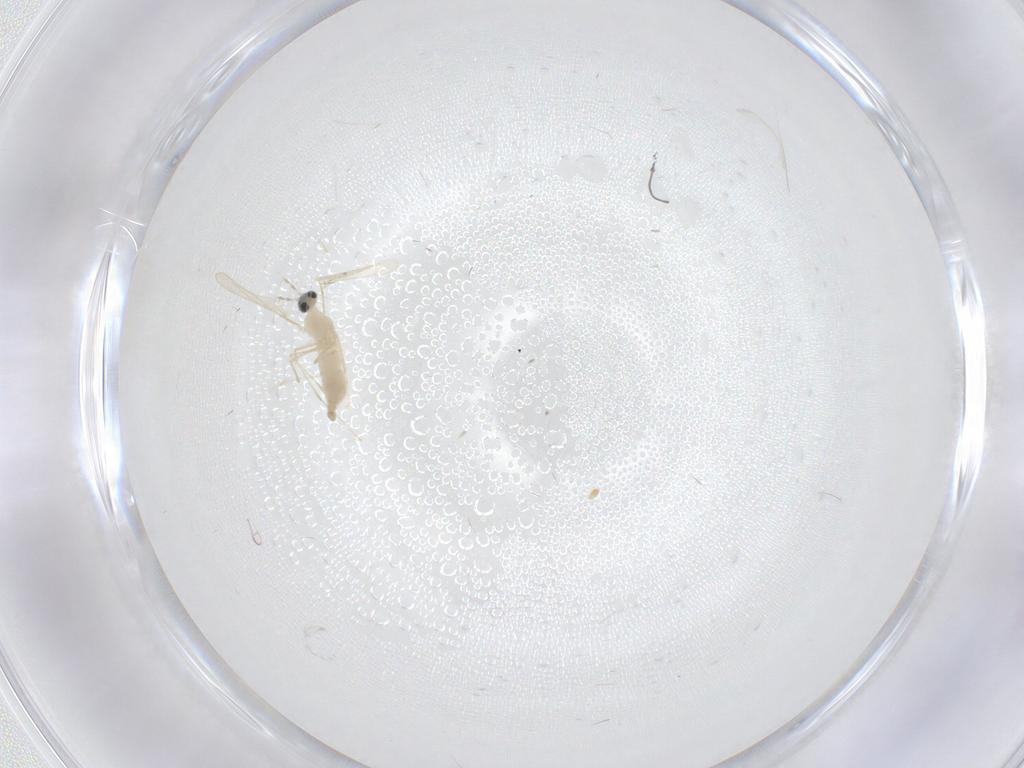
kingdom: Animalia
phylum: Arthropoda
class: Insecta
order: Diptera
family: Cecidomyiidae
